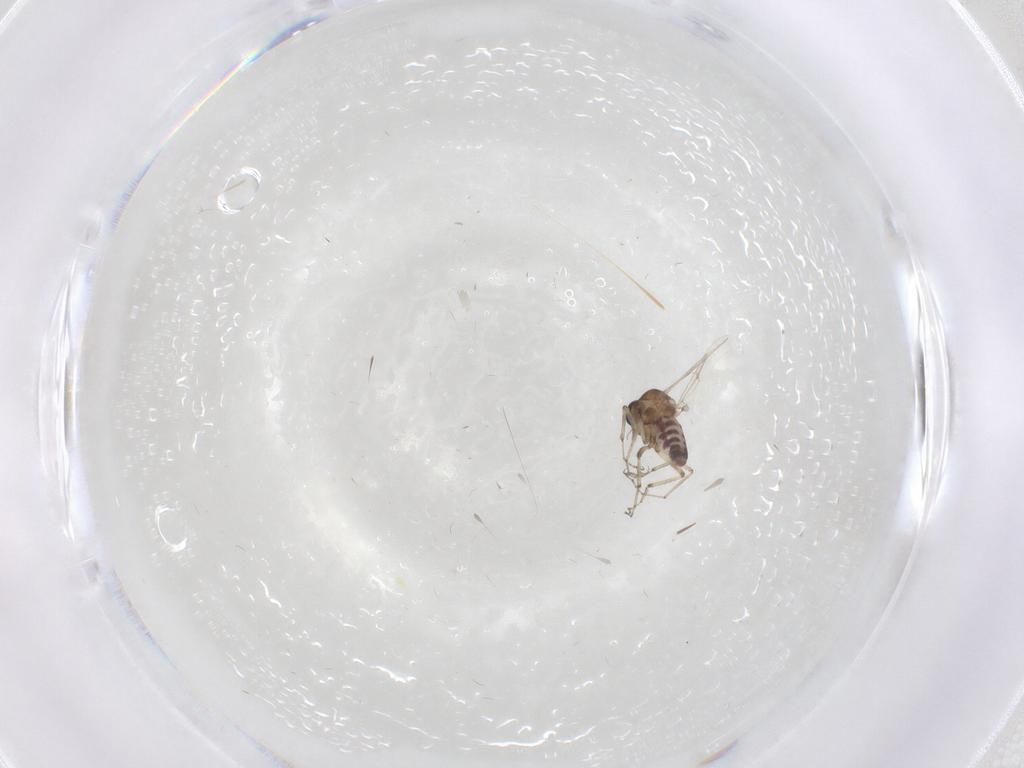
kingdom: Animalia
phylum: Arthropoda
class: Insecta
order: Diptera
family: Ceratopogonidae
